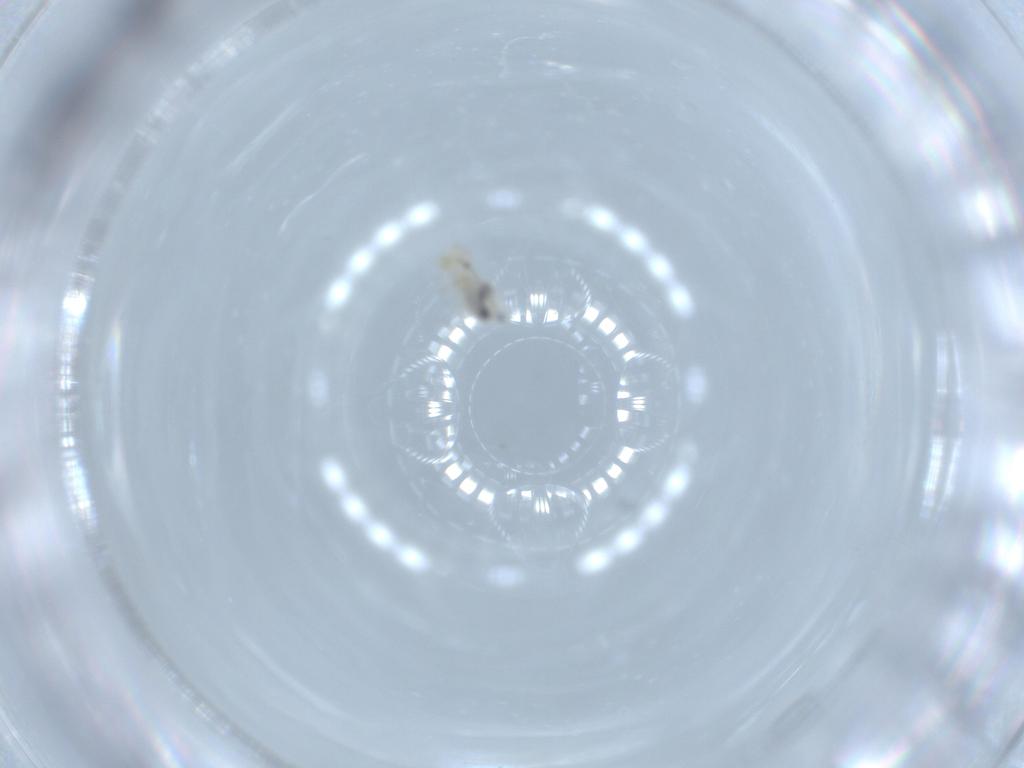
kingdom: Animalia
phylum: Arthropoda
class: Insecta
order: Psocodea
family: Caeciliusidae
